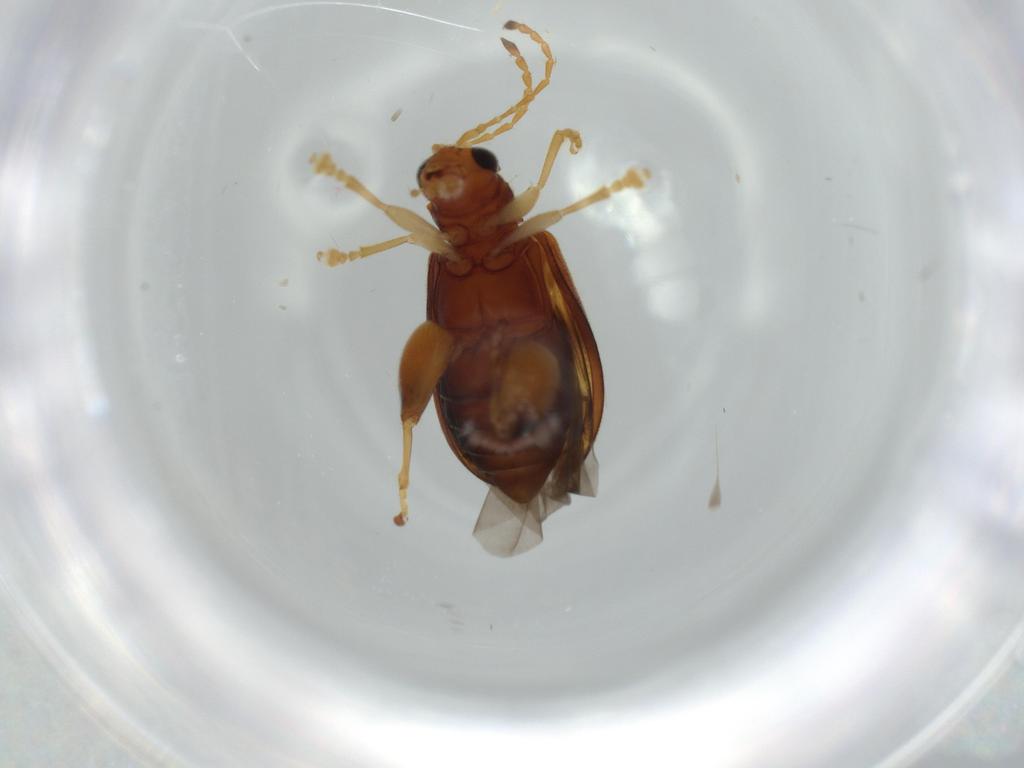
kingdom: Animalia
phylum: Arthropoda
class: Insecta
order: Coleoptera
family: Chrysomelidae
